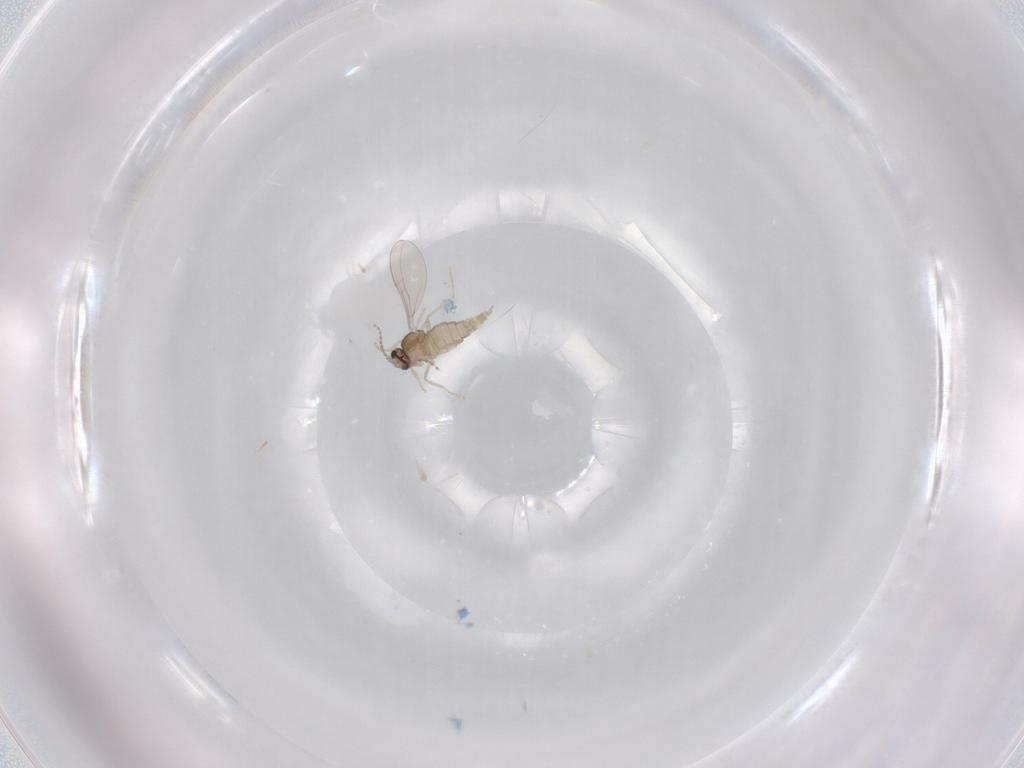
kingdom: Animalia
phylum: Arthropoda
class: Insecta
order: Diptera
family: Cecidomyiidae
